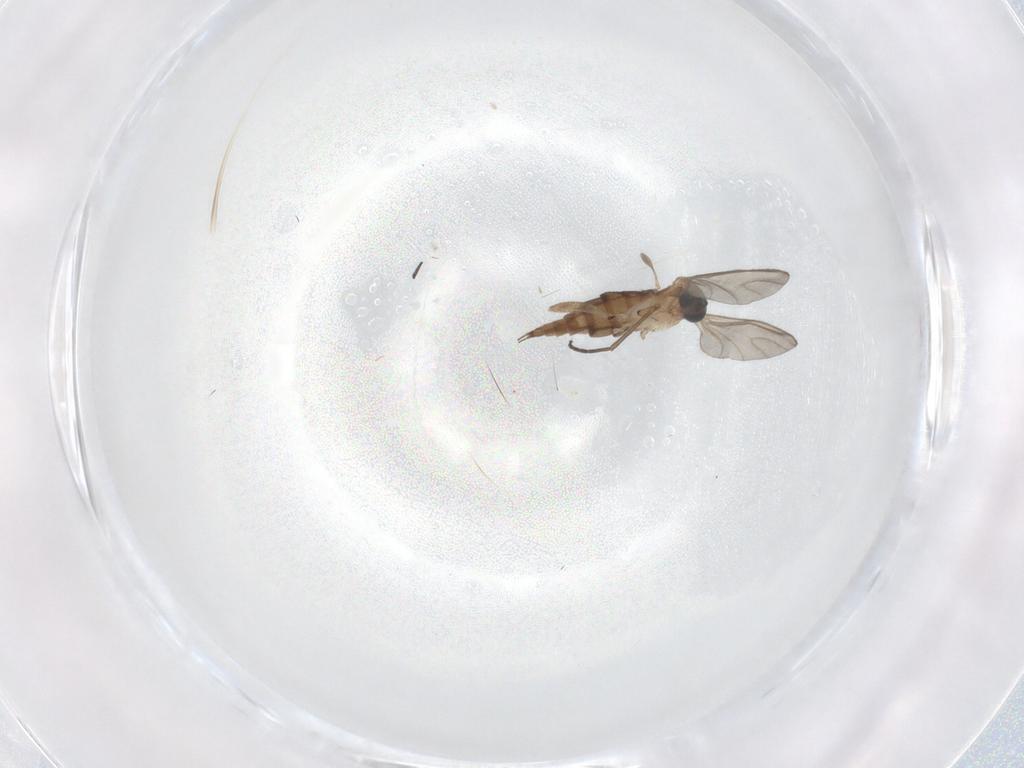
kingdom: Animalia
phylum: Arthropoda
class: Insecta
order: Diptera
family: Sciaridae
